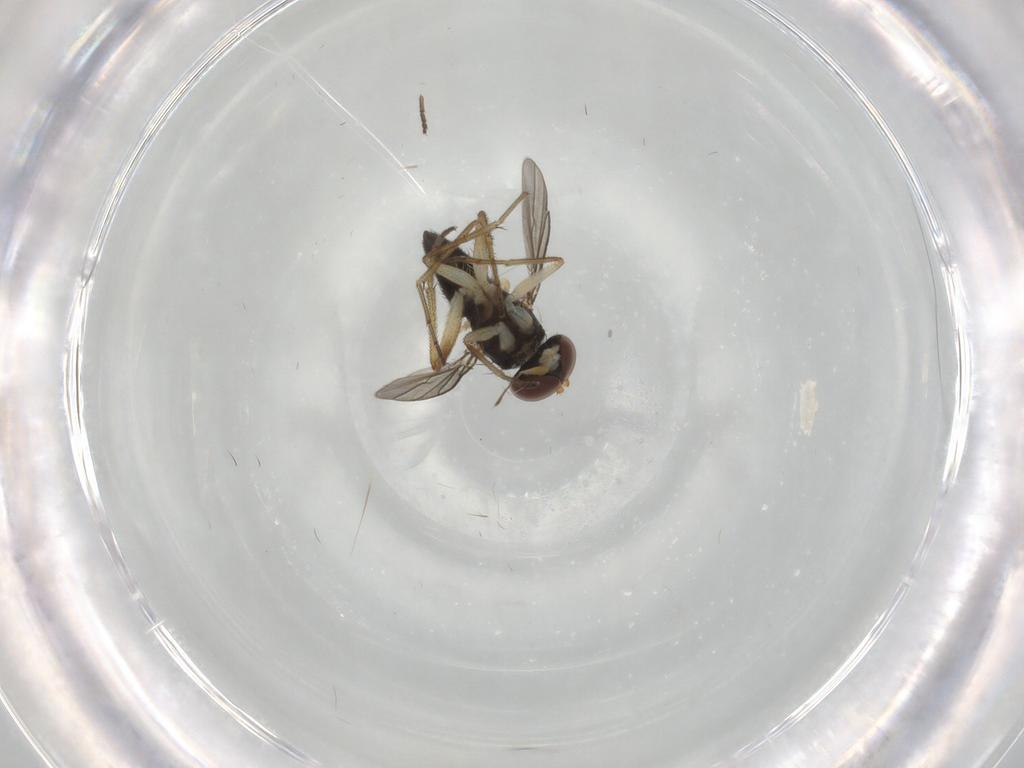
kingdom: Animalia
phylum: Arthropoda
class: Insecta
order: Diptera
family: Dolichopodidae
